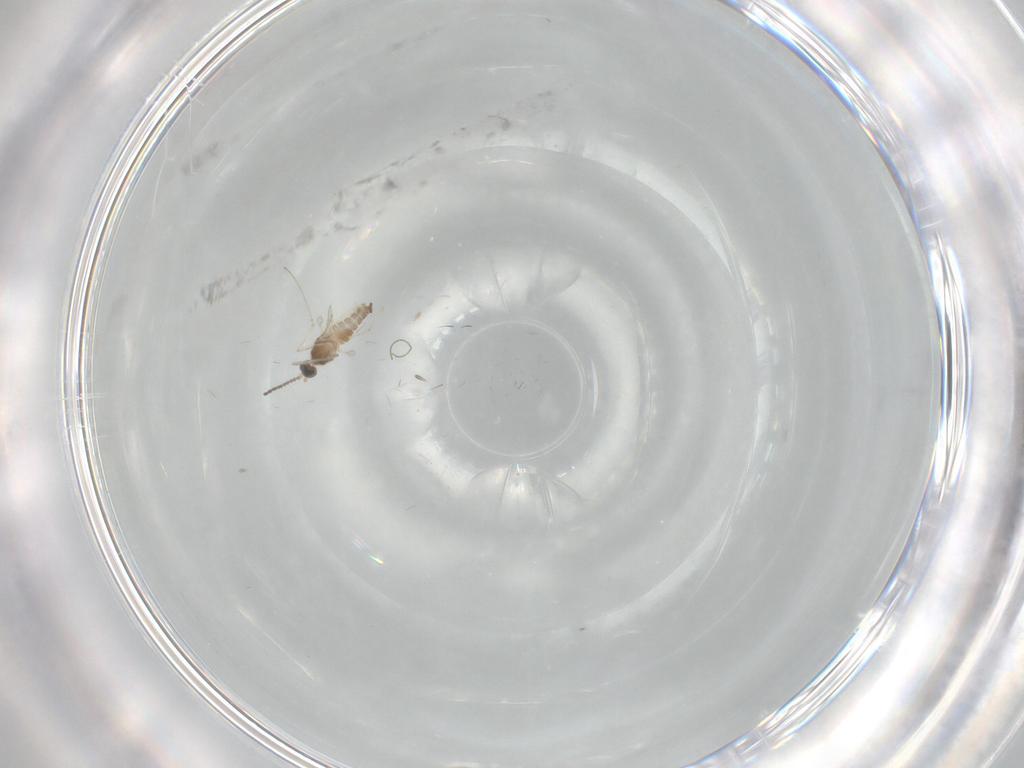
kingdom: Animalia
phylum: Arthropoda
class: Insecta
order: Diptera
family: Cecidomyiidae
